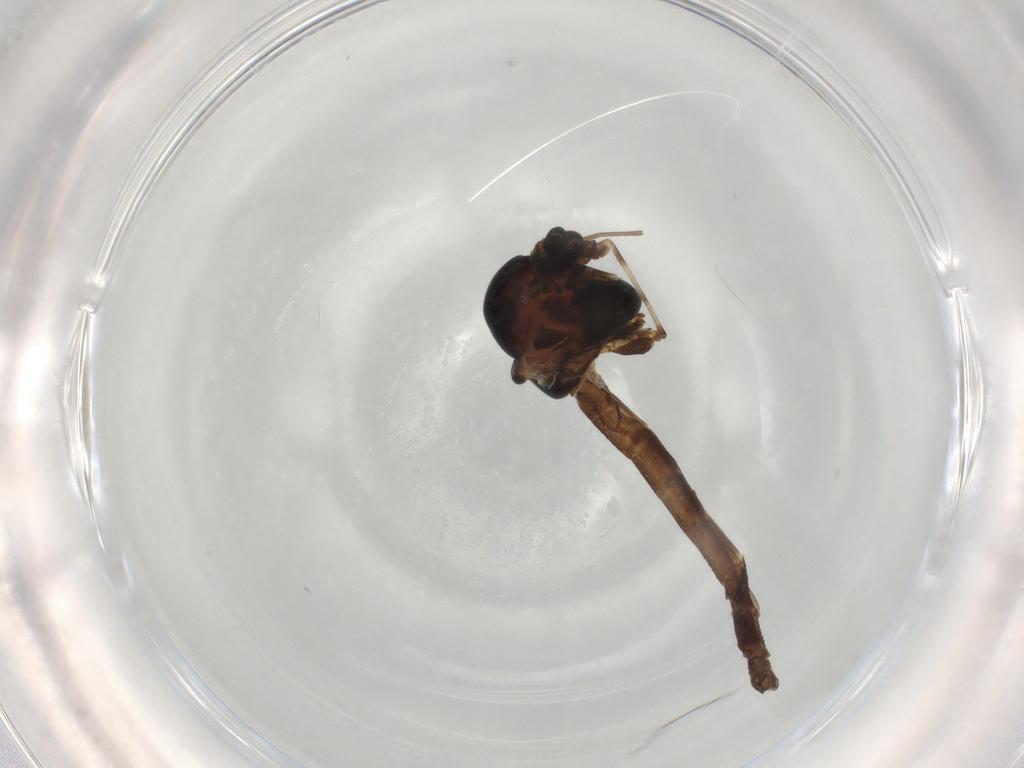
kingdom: Animalia
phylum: Arthropoda
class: Insecta
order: Diptera
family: Chironomidae
